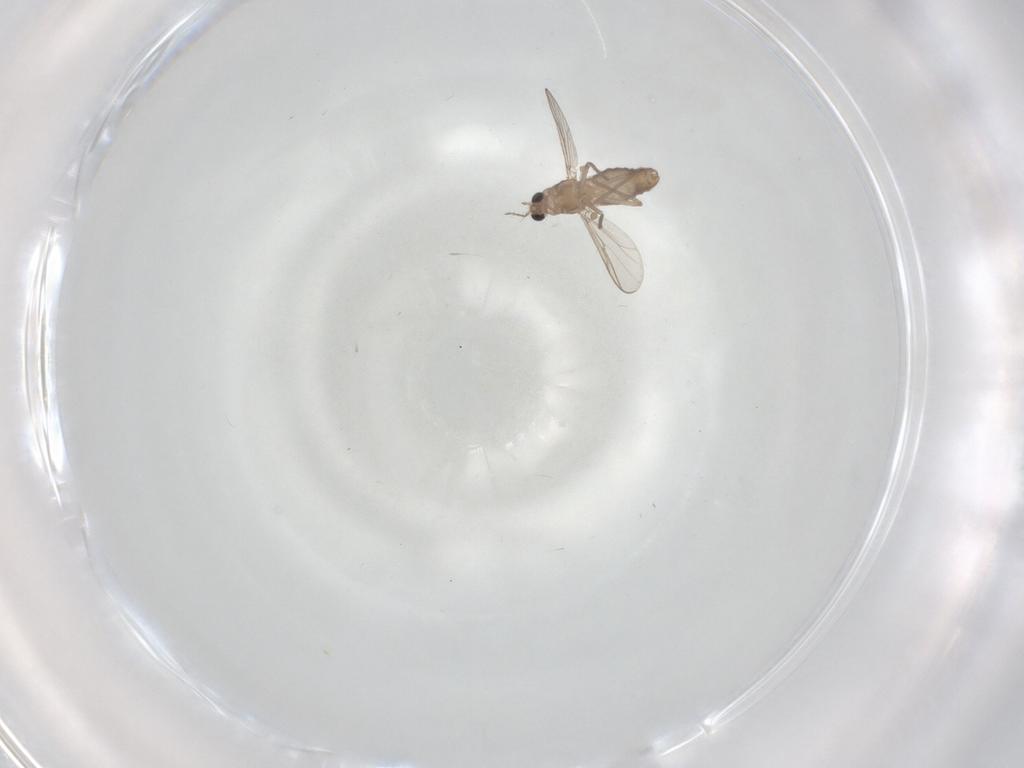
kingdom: Animalia
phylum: Arthropoda
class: Insecta
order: Diptera
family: Chironomidae
